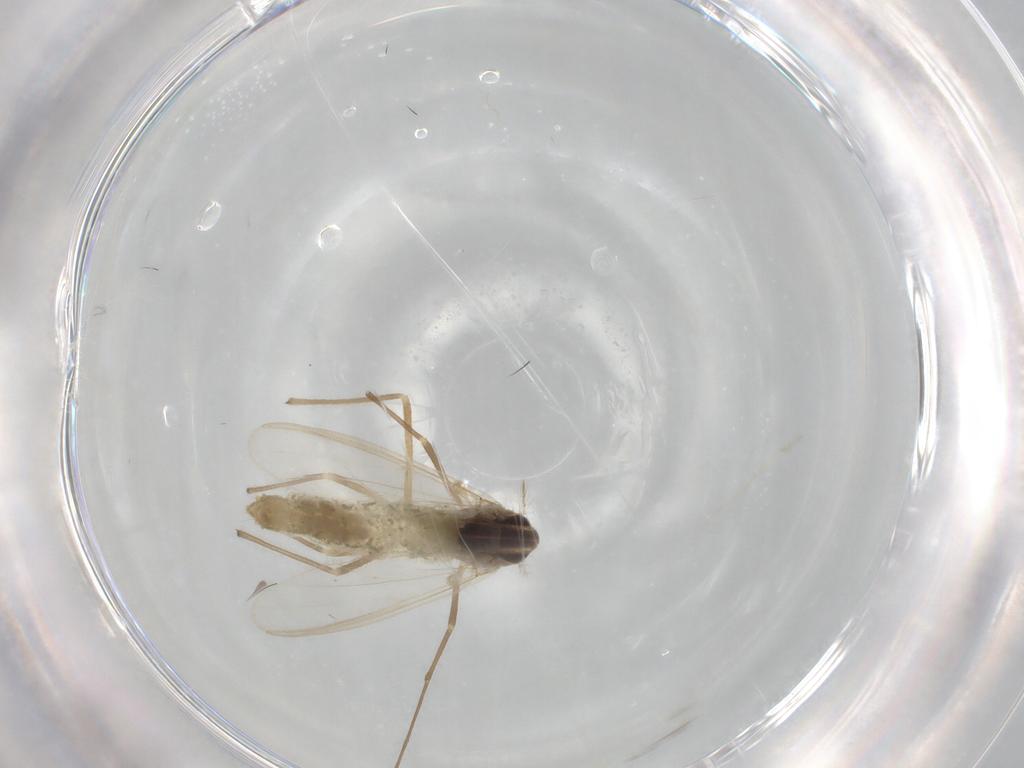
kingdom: Animalia
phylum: Arthropoda
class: Insecta
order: Diptera
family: Chironomidae
